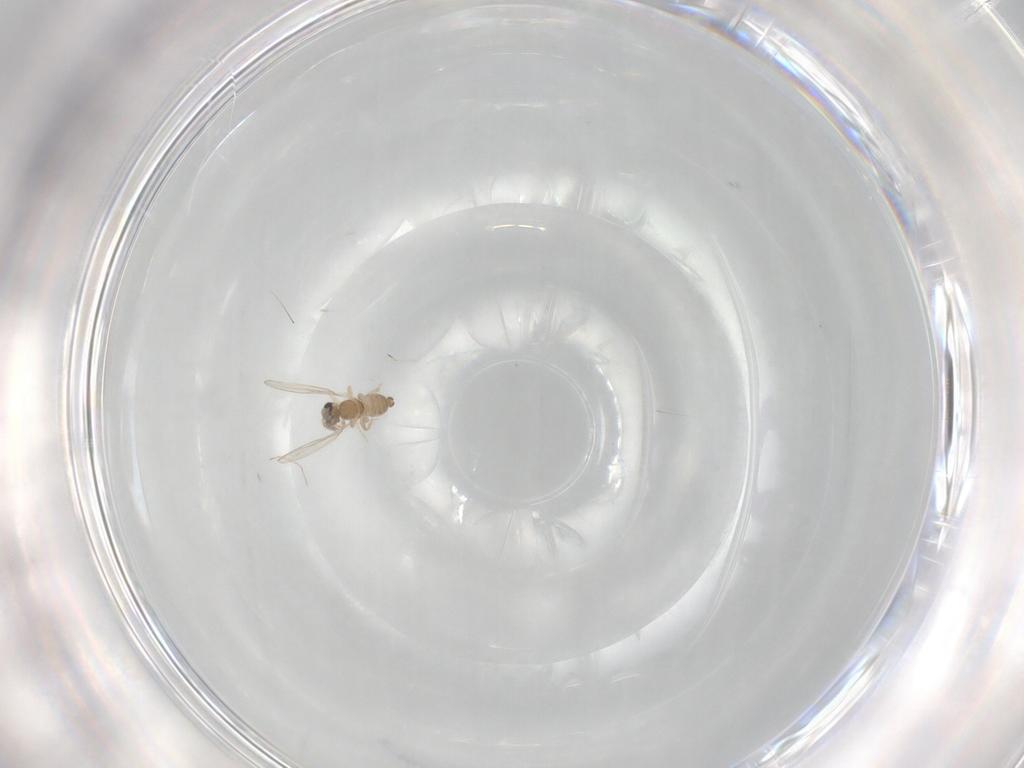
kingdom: Animalia
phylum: Arthropoda
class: Insecta
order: Diptera
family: Cecidomyiidae
